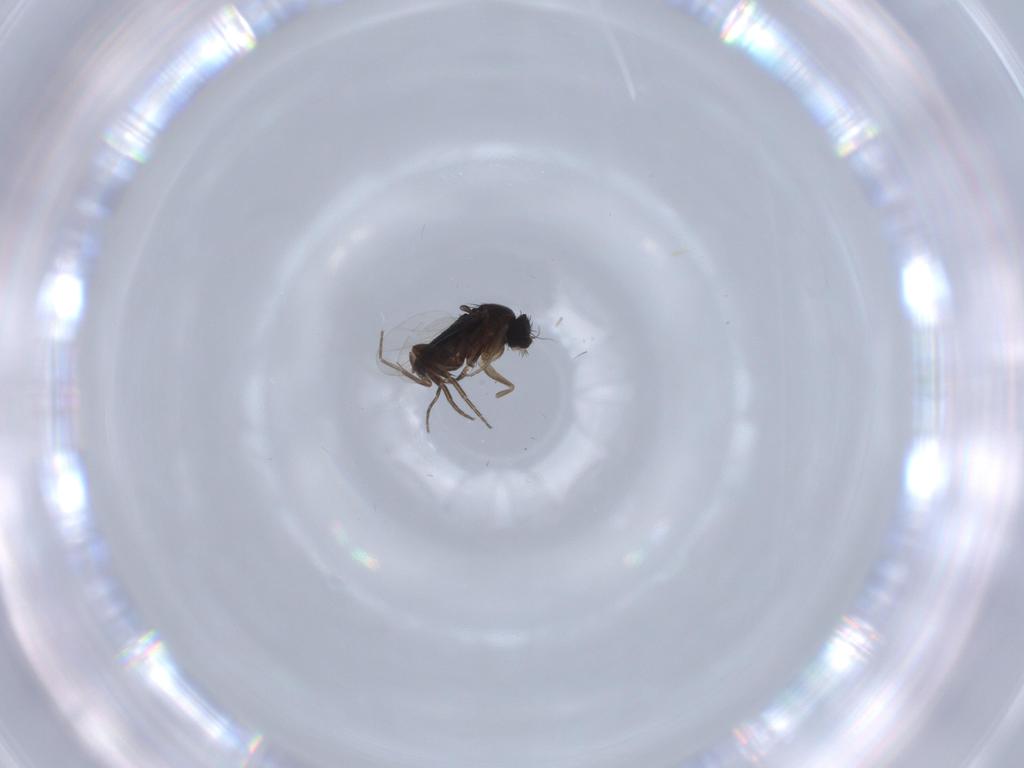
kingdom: Animalia
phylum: Arthropoda
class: Insecta
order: Diptera
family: Phoridae
